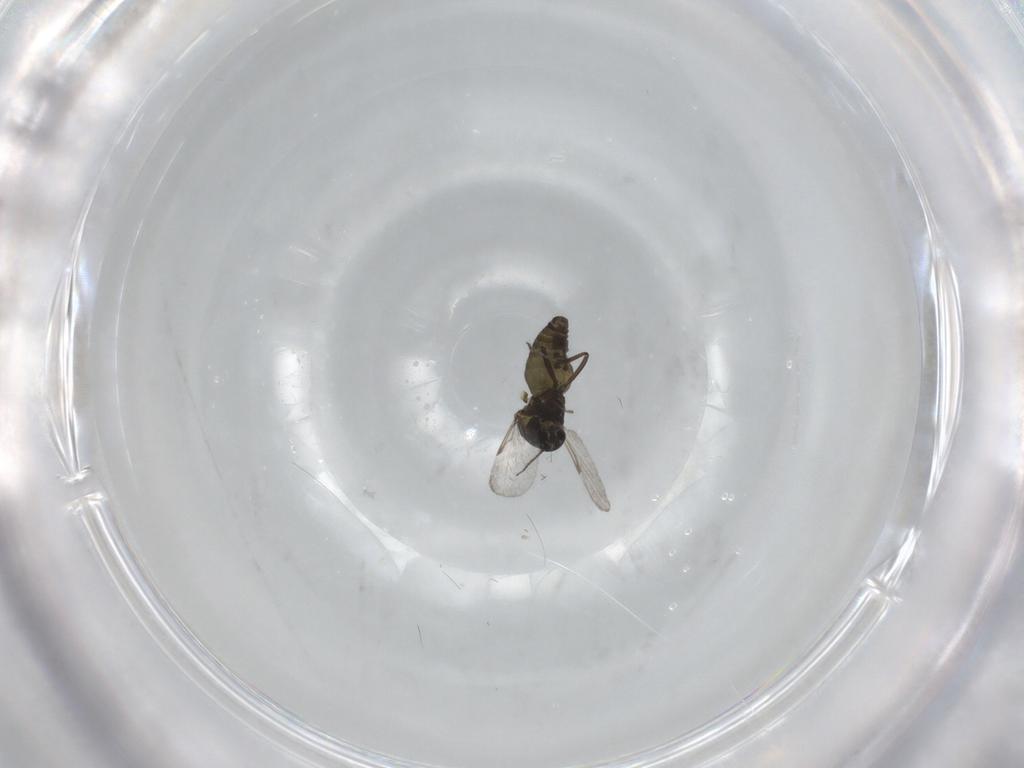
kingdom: Animalia
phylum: Arthropoda
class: Insecta
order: Diptera
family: Ceratopogonidae
